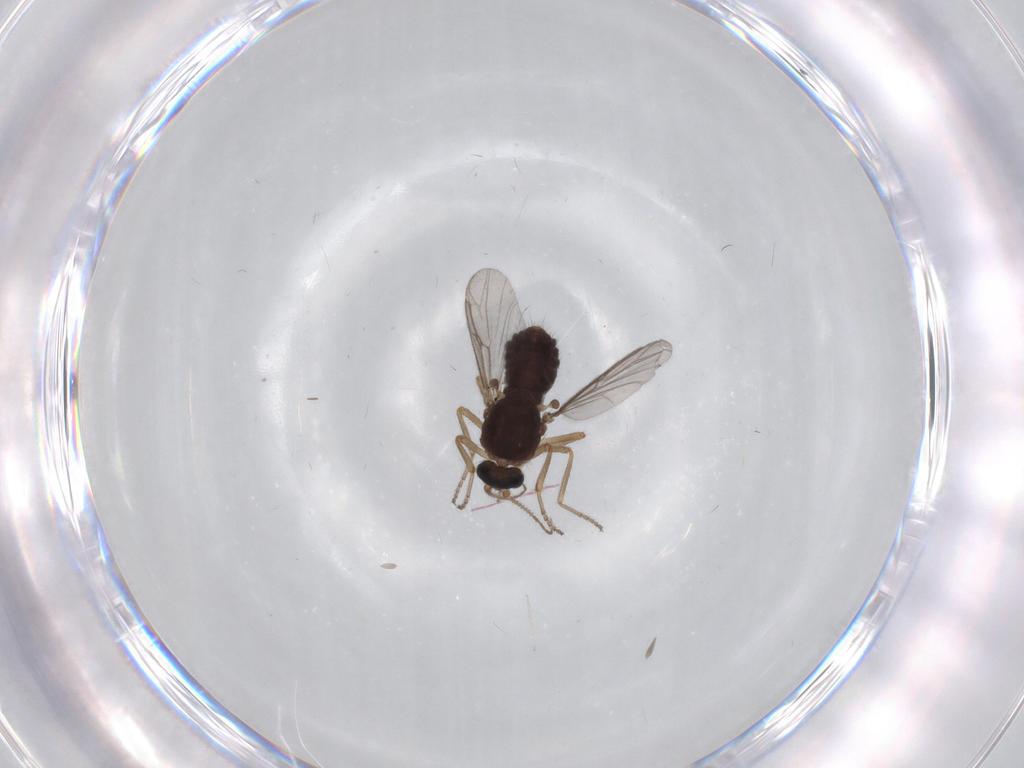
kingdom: Animalia
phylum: Arthropoda
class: Insecta
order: Diptera
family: Ceratopogonidae
